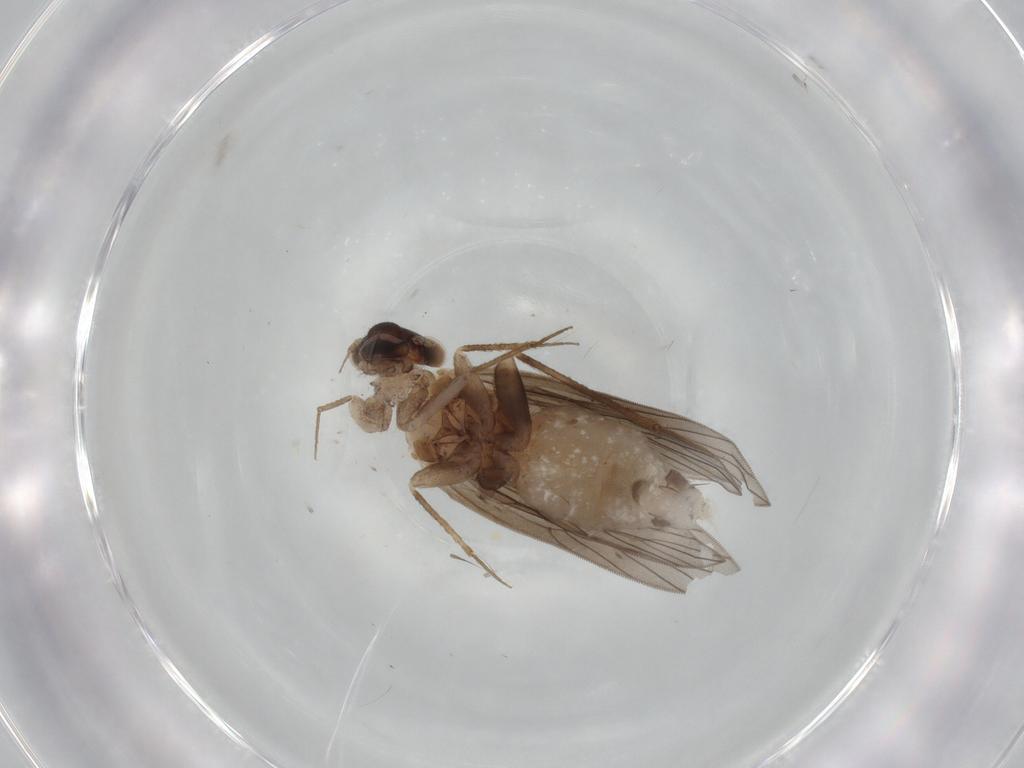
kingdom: Animalia
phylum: Arthropoda
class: Insecta
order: Psocodea
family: Lepidopsocidae
